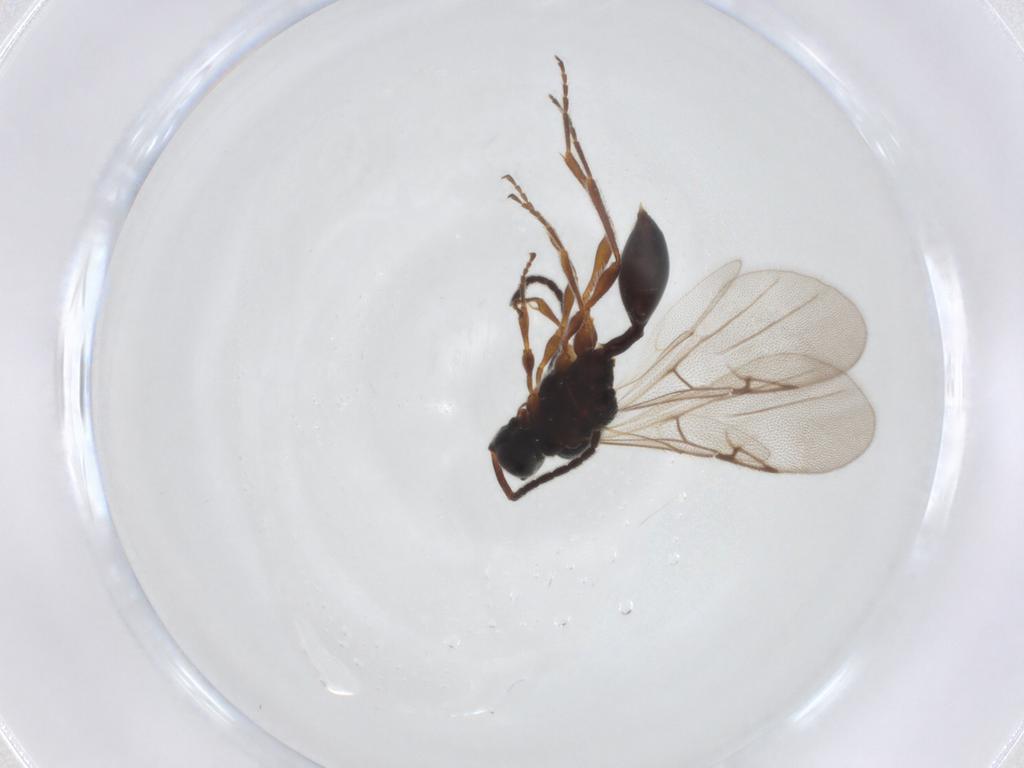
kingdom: Animalia
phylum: Arthropoda
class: Insecta
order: Hymenoptera
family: Diapriidae
